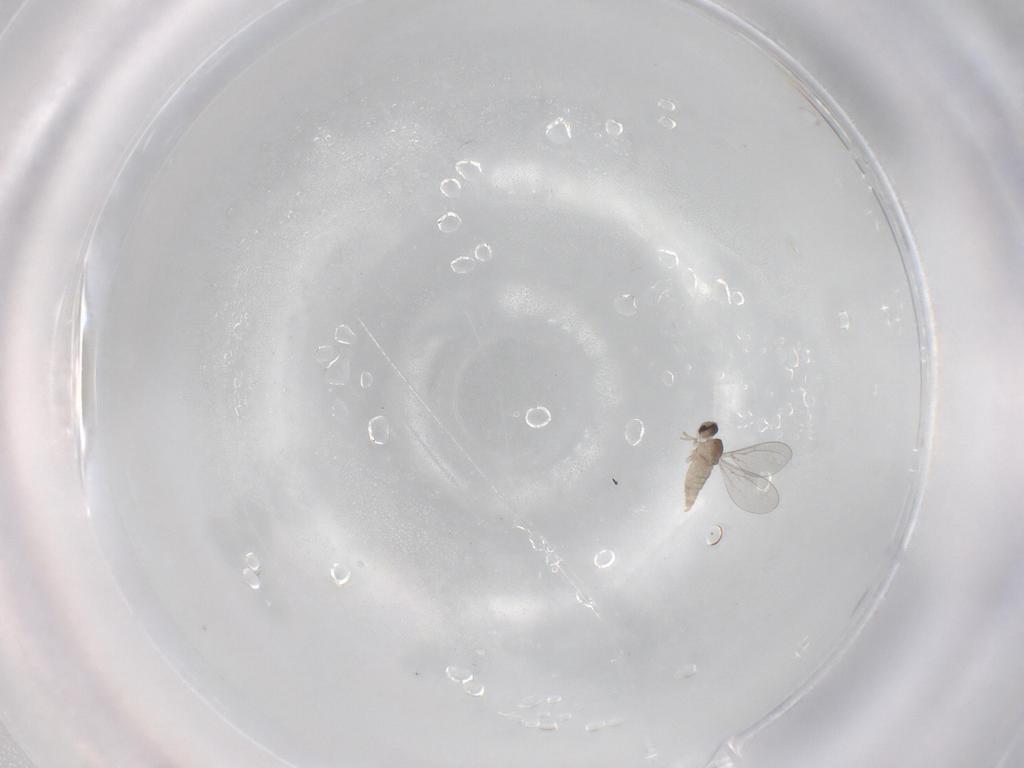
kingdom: Animalia
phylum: Arthropoda
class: Insecta
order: Diptera
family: Cecidomyiidae
